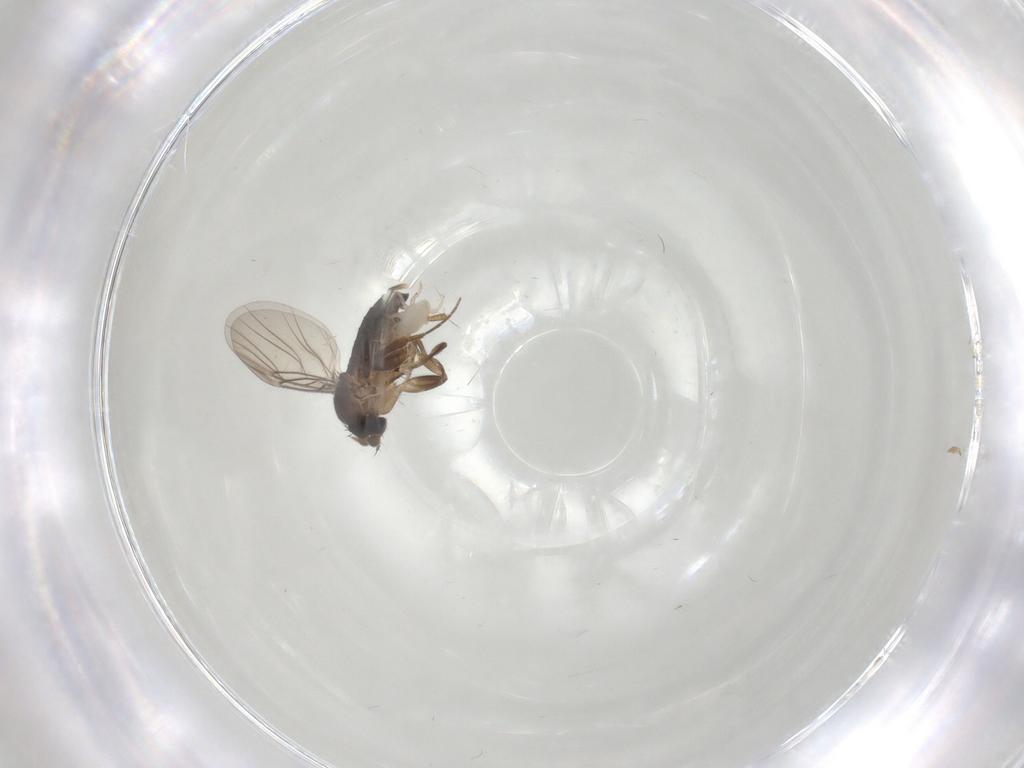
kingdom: Animalia
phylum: Arthropoda
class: Insecta
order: Diptera
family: Phoridae
